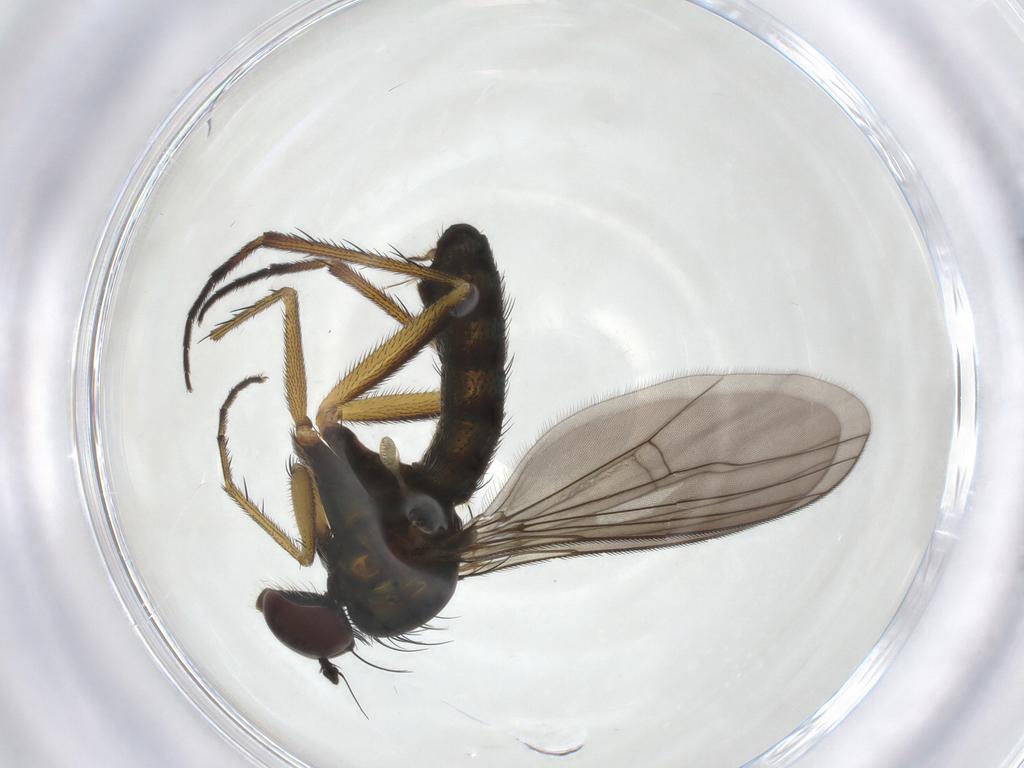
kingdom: Animalia
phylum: Arthropoda
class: Insecta
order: Diptera
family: Dolichopodidae
